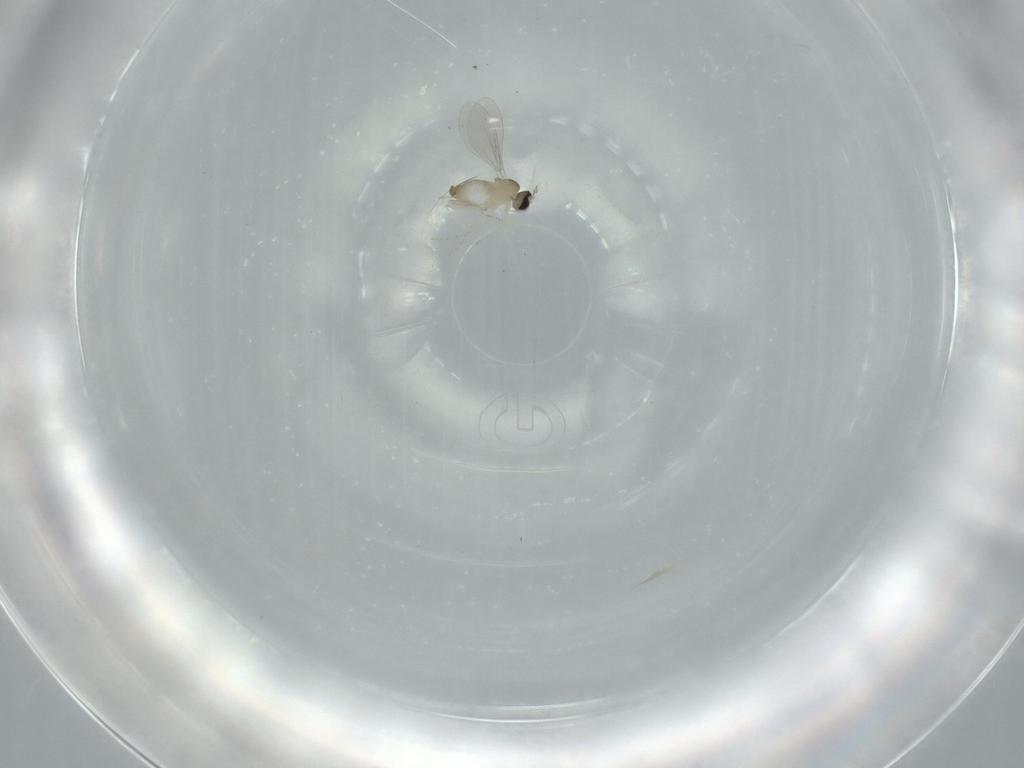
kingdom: Animalia
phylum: Arthropoda
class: Insecta
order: Diptera
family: Cecidomyiidae
